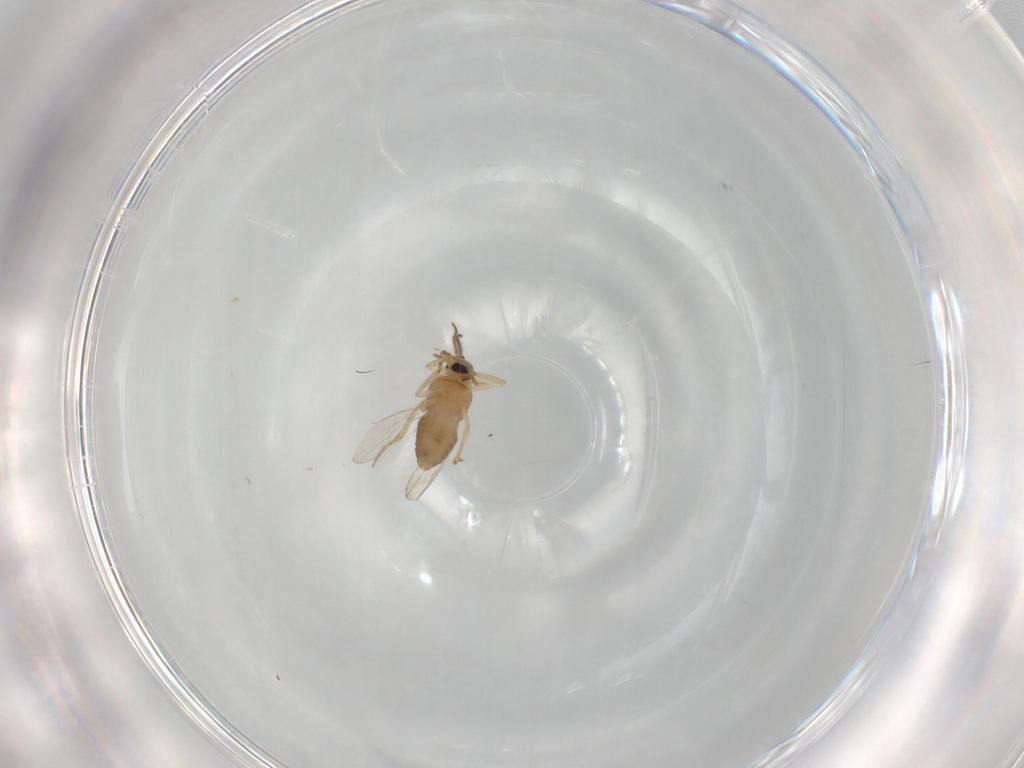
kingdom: Animalia
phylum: Arthropoda
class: Insecta
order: Diptera
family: Ceratopogonidae
